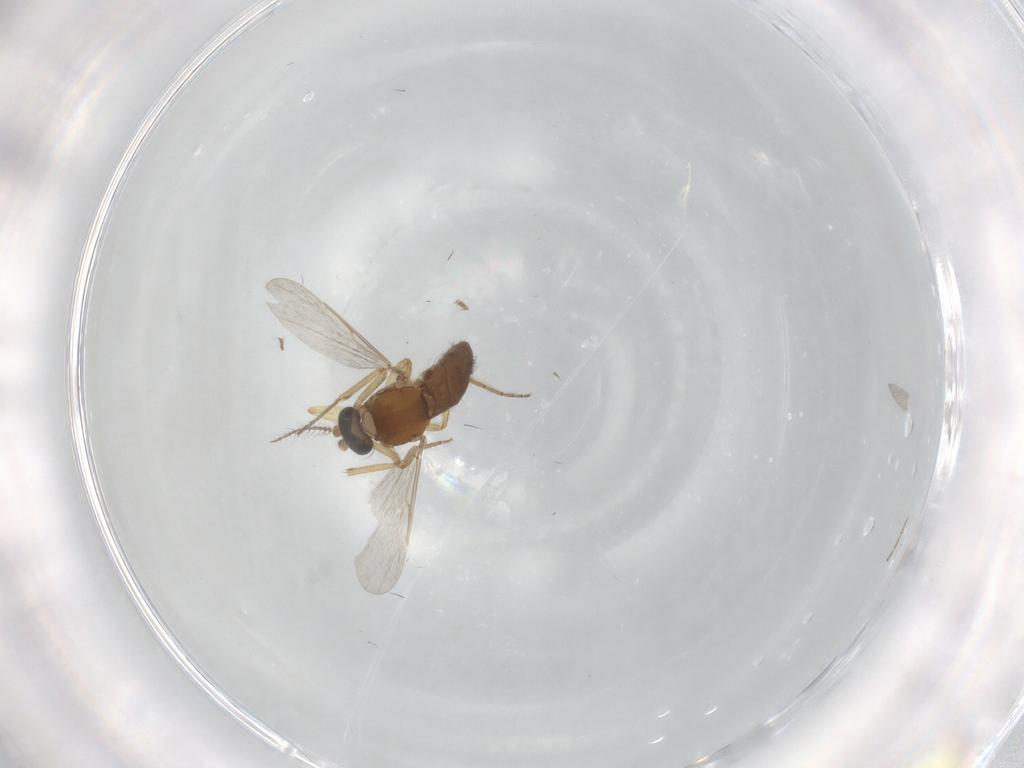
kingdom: Animalia
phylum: Arthropoda
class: Insecta
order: Diptera
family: Ceratopogonidae
